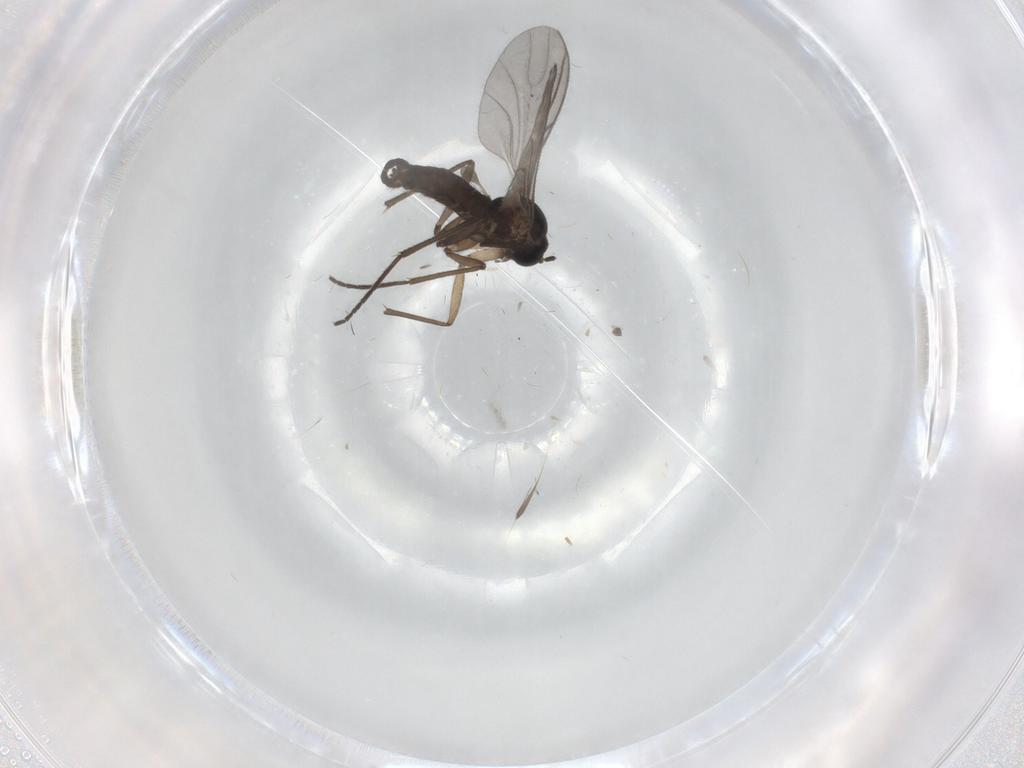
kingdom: Animalia
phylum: Arthropoda
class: Insecta
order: Diptera
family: Sciaridae
